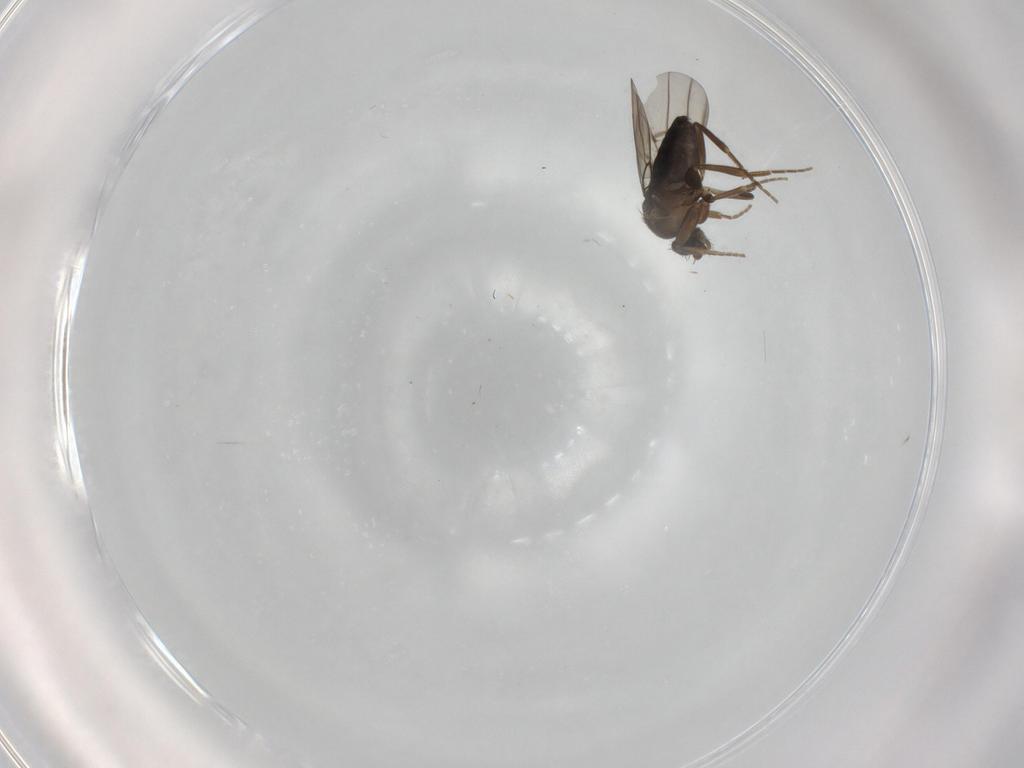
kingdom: Animalia
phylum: Arthropoda
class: Insecta
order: Diptera
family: Phoridae
